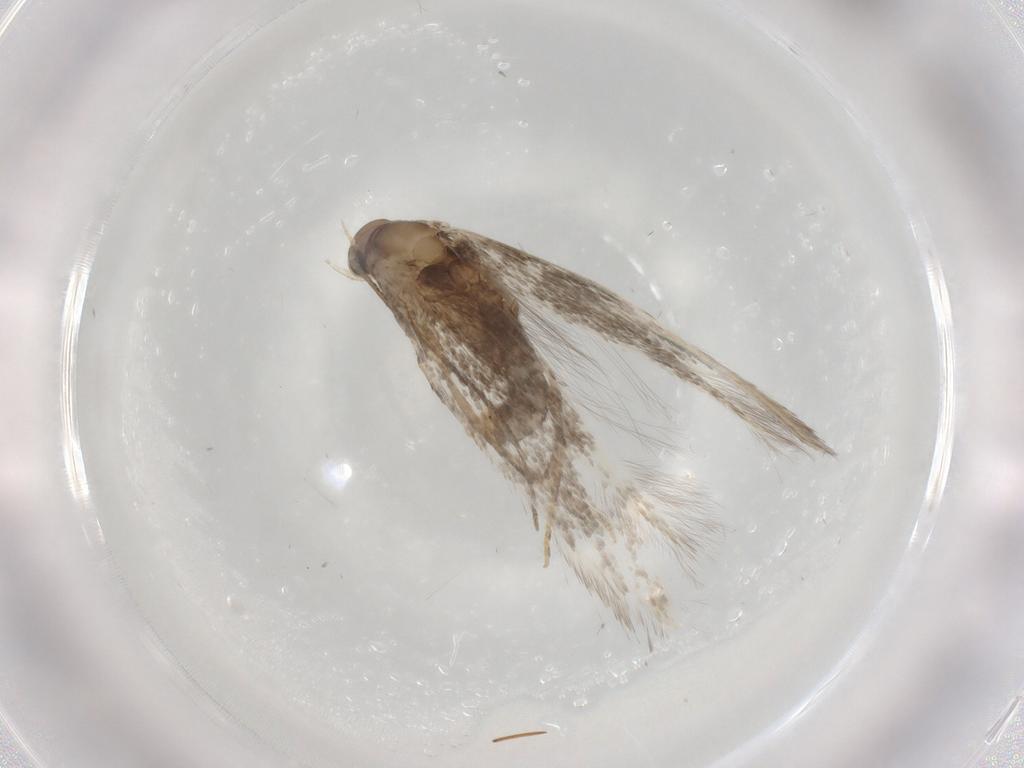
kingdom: Animalia
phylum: Arthropoda
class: Insecta
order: Lepidoptera
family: Elachistidae
